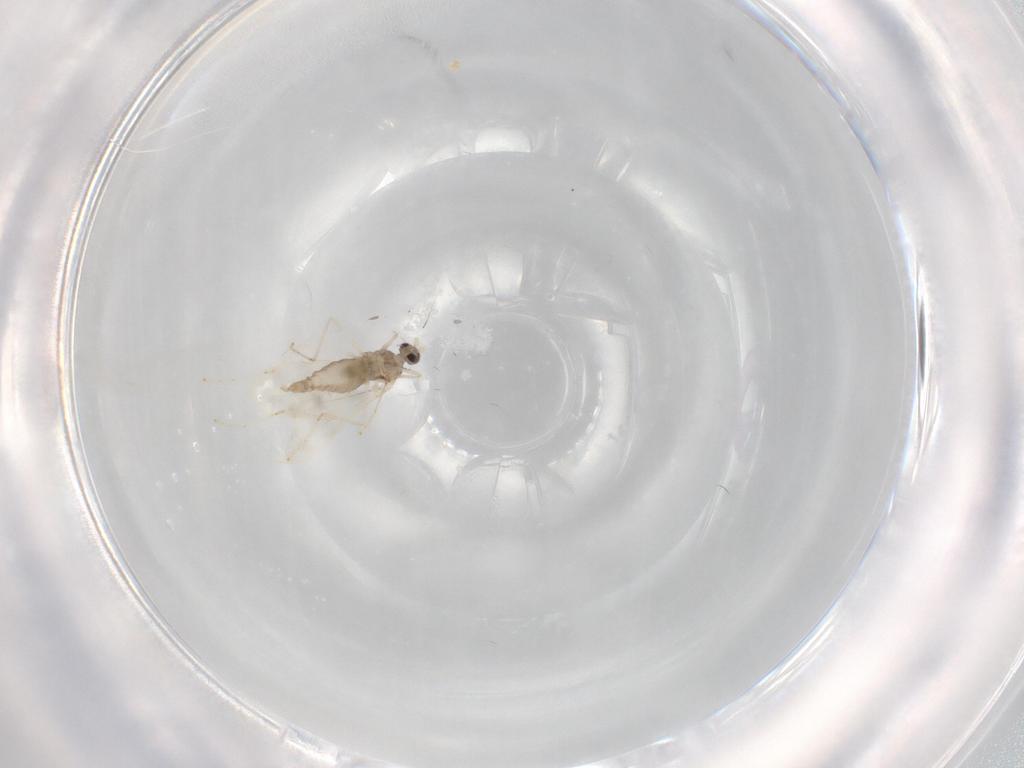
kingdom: Animalia
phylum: Arthropoda
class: Insecta
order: Diptera
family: Cecidomyiidae
